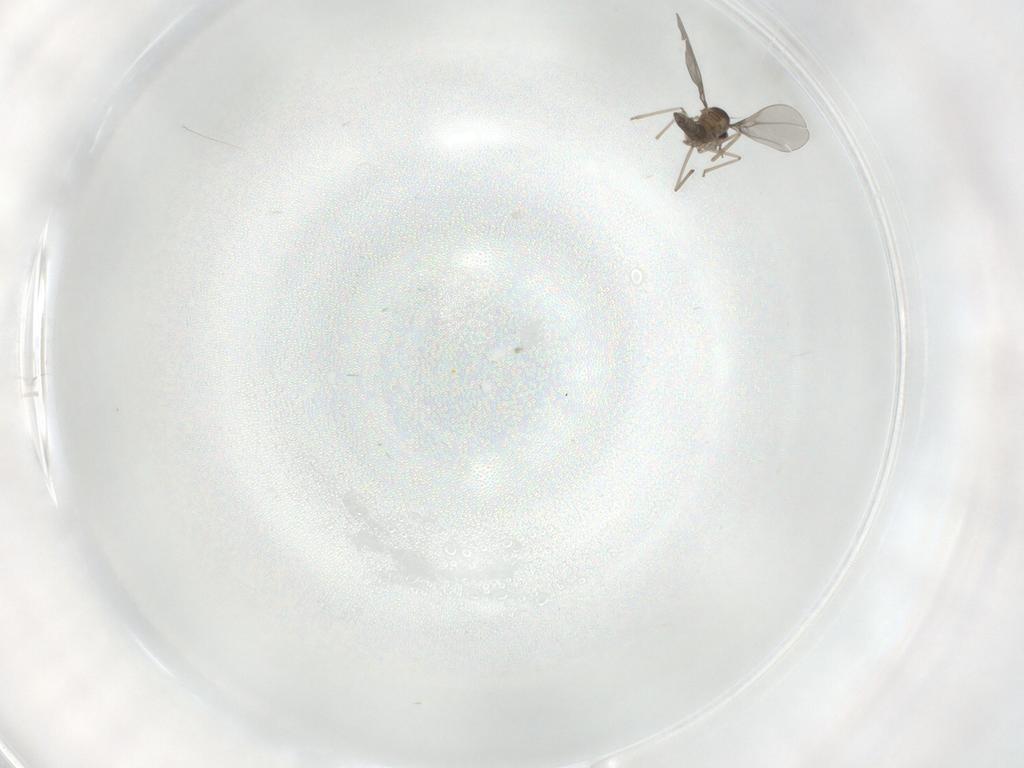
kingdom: Animalia
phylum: Arthropoda
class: Insecta
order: Diptera
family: Cecidomyiidae
